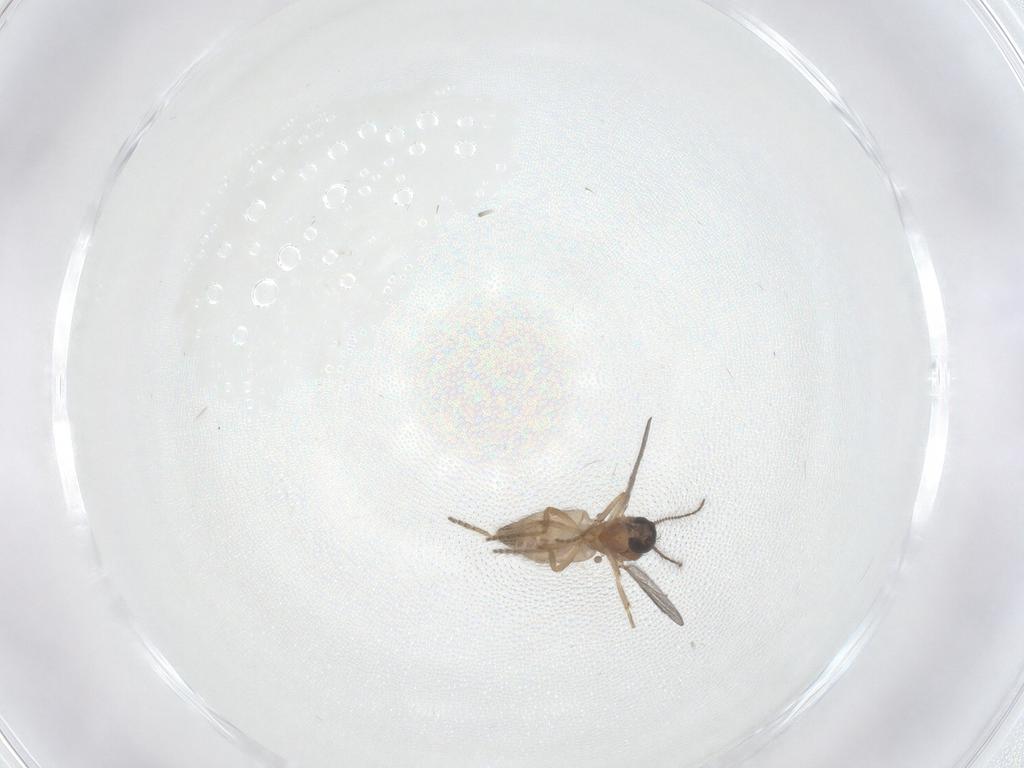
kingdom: Animalia
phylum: Arthropoda
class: Insecta
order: Diptera
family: Ceratopogonidae
